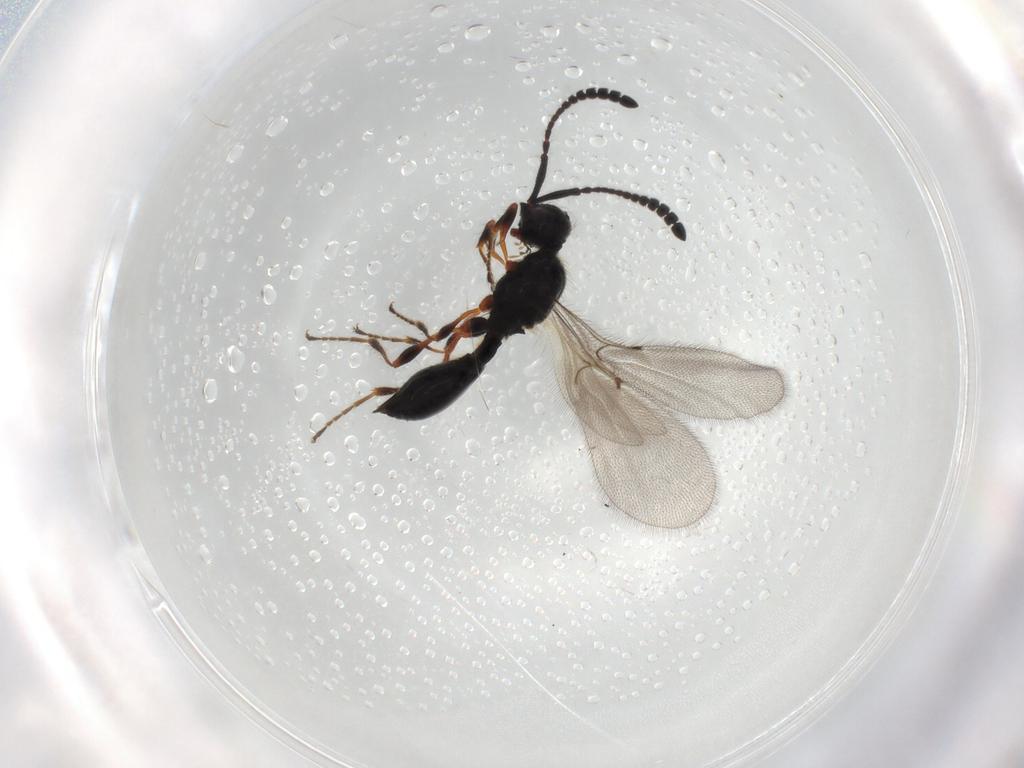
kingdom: Animalia
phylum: Arthropoda
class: Insecta
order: Hymenoptera
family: Diapriidae
